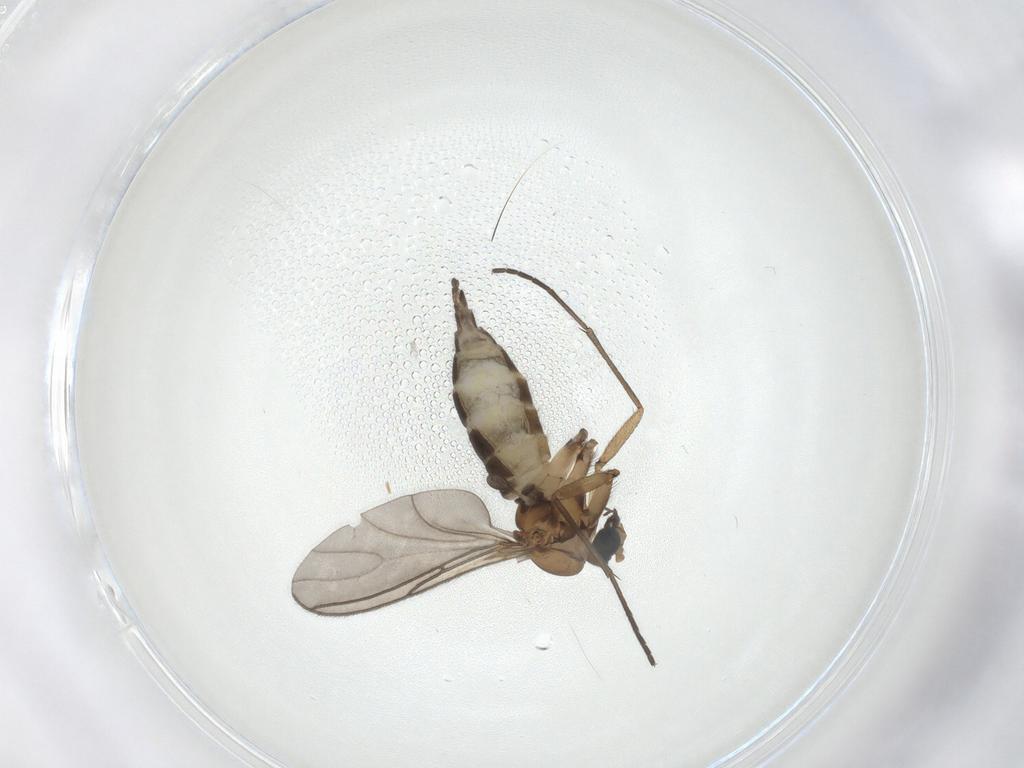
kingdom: Animalia
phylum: Arthropoda
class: Insecta
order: Diptera
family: Sciaridae
